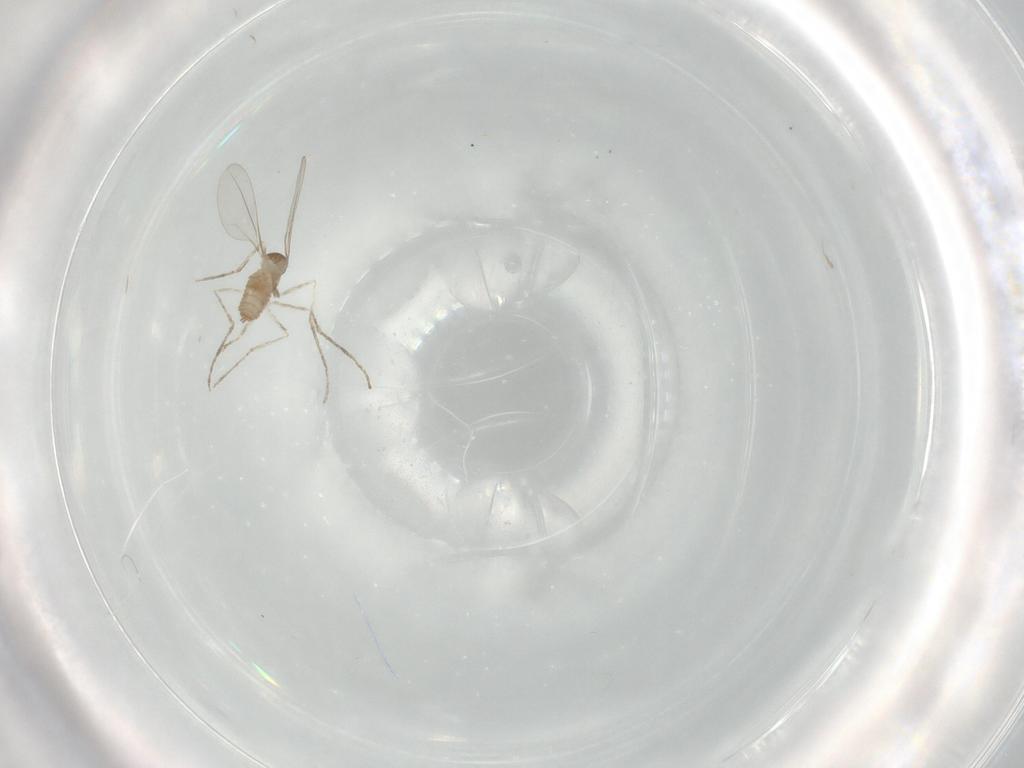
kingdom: Animalia
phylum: Arthropoda
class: Insecta
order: Diptera
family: Cecidomyiidae
